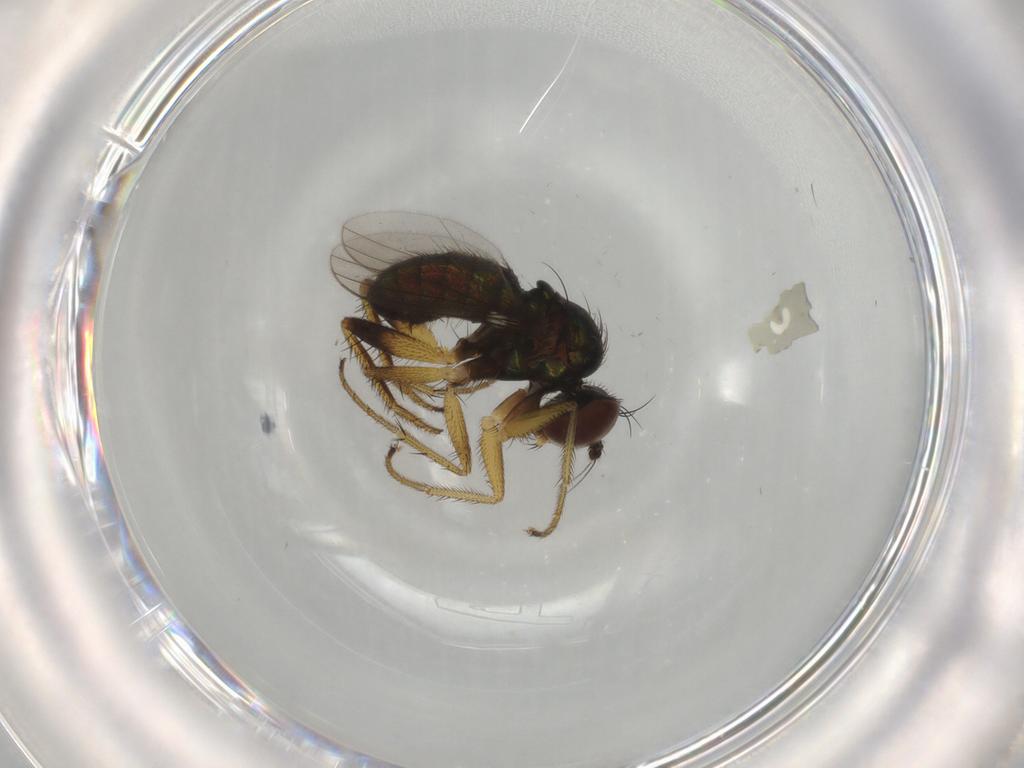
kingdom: Animalia
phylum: Arthropoda
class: Insecta
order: Diptera
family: Dolichopodidae
